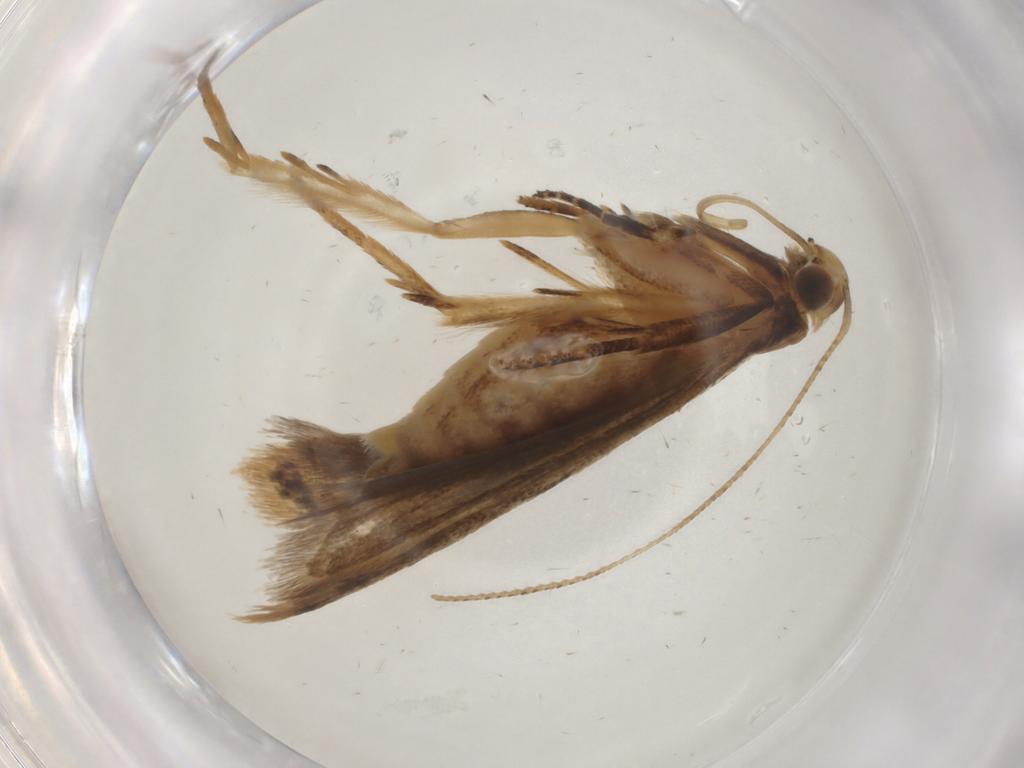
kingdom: Animalia
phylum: Arthropoda
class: Insecta
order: Lepidoptera
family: Gelechiidae
